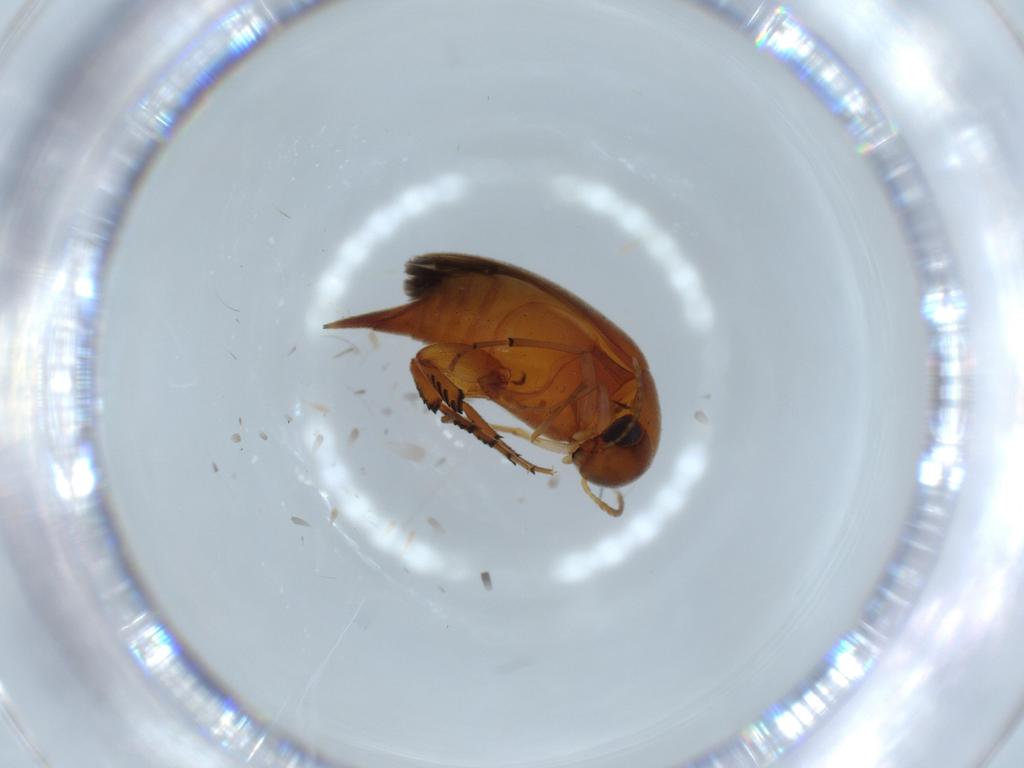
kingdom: Animalia
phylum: Arthropoda
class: Insecta
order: Coleoptera
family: Mordellidae
